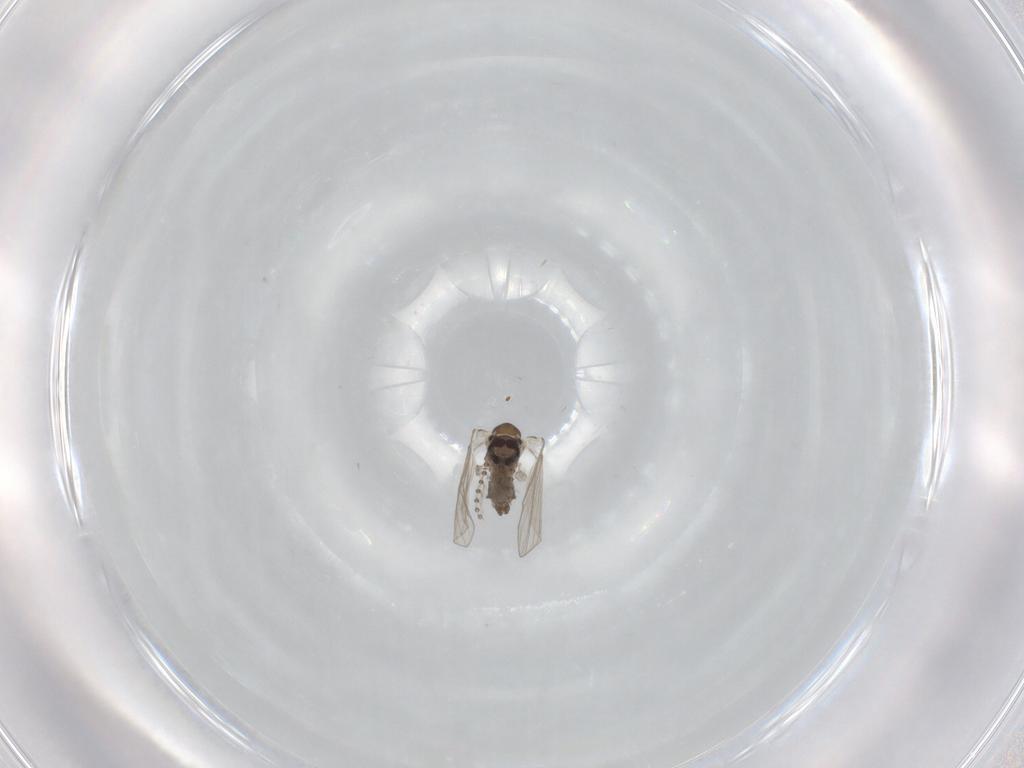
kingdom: Animalia
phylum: Arthropoda
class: Insecta
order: Diptera
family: Psychodidae
